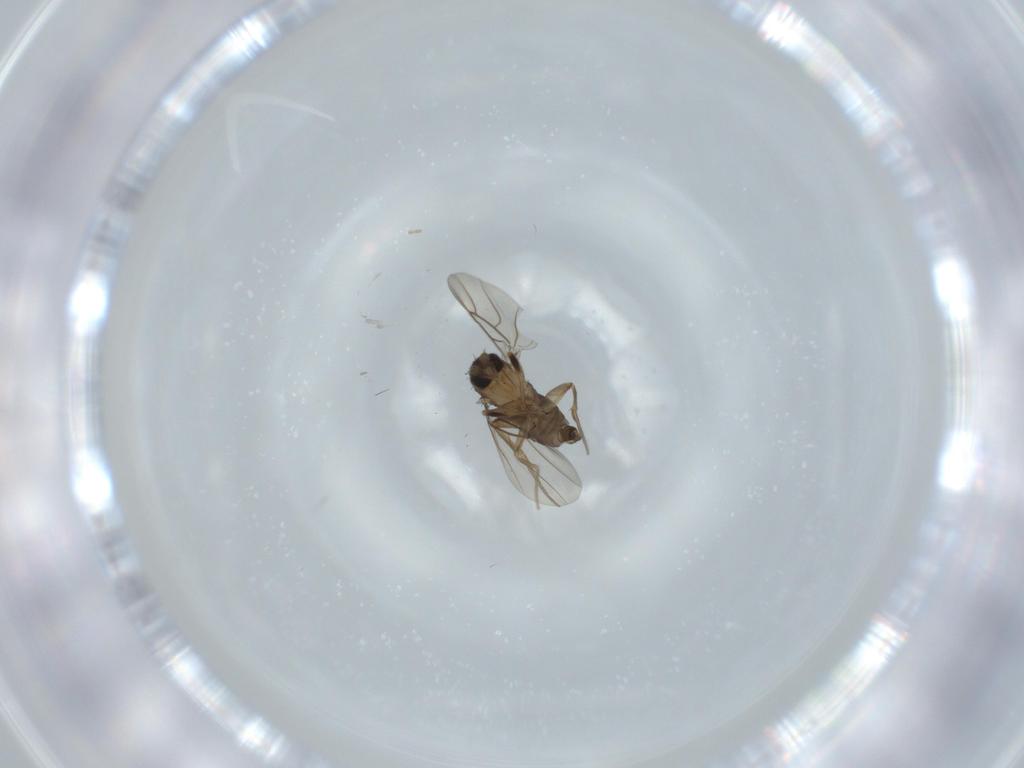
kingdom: Animalia
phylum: Arthropoda
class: Insecta
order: Diptera
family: Phoridae
